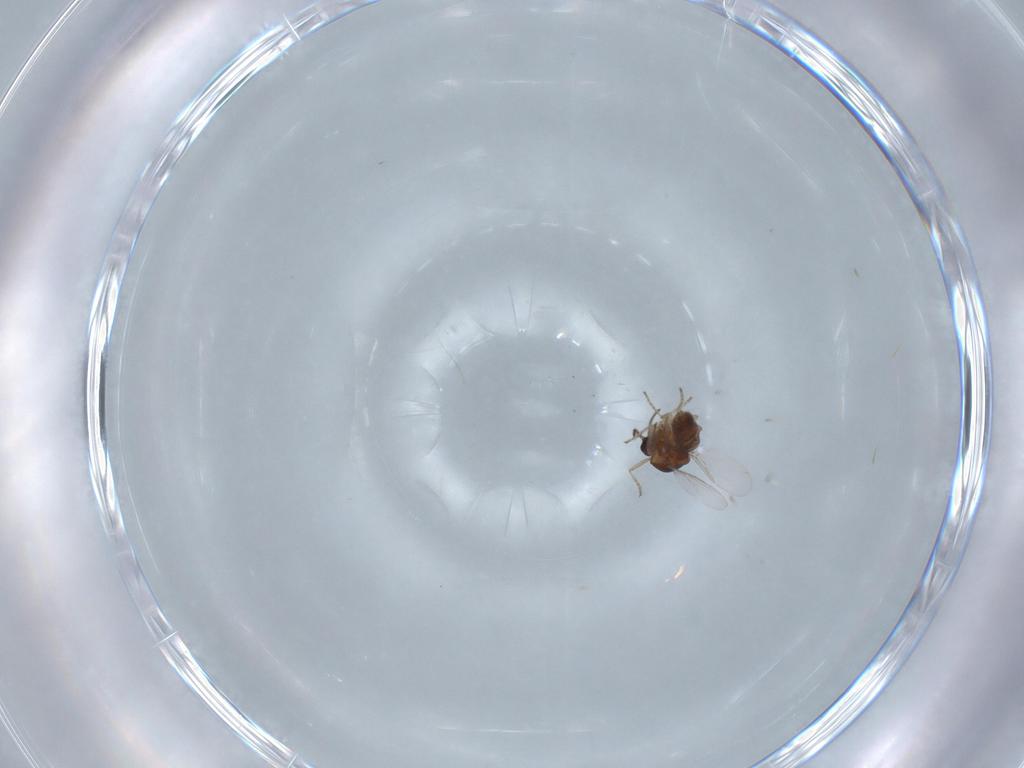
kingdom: Animalia
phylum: Arthropoda
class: Insecta
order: Diptera
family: Ceratopogonidae
